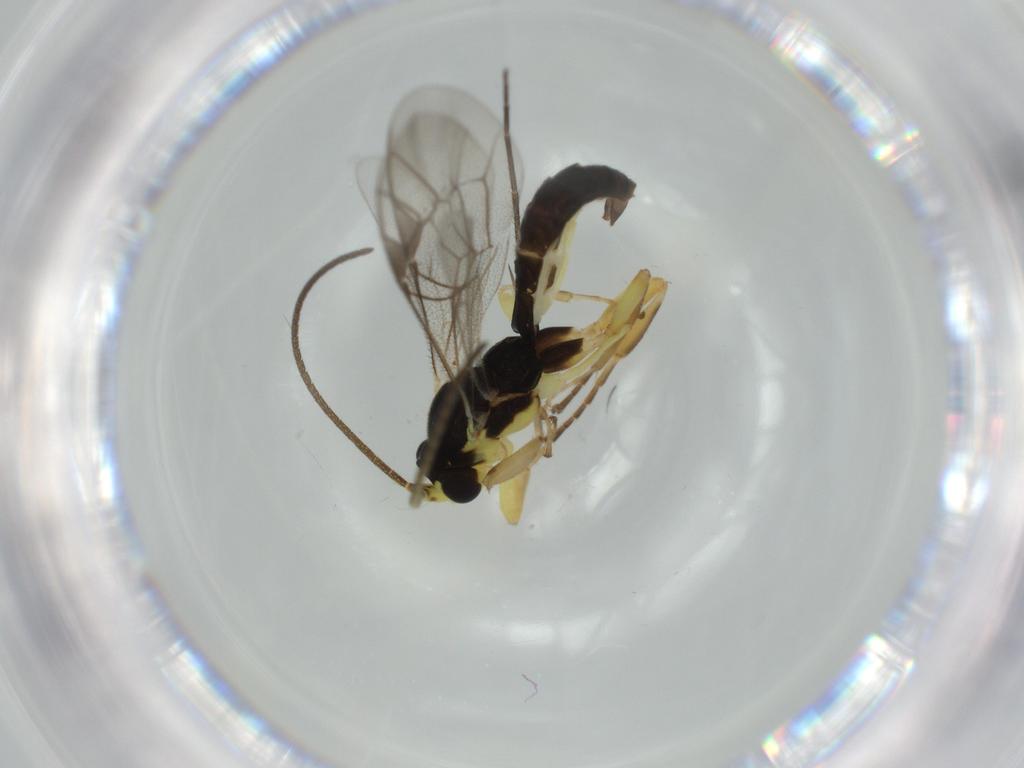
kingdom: Animalia
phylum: Arthropoda
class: Insecta
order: Hymenoptera
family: Ichneumonidae
